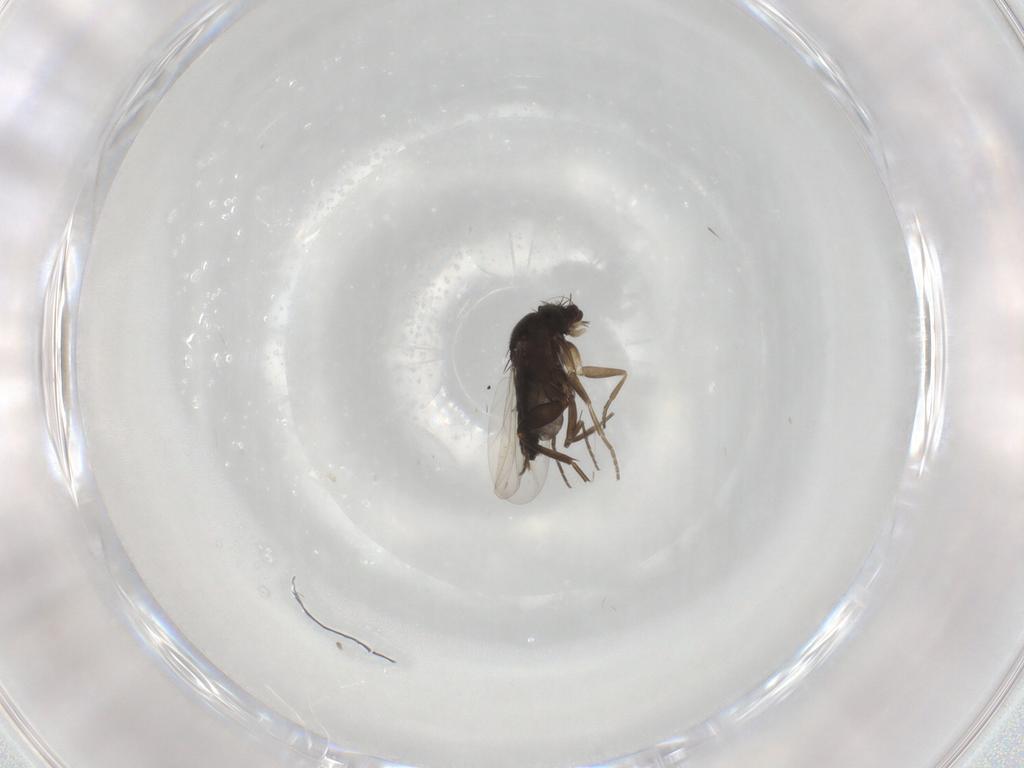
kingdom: Animalia
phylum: Arthropoda
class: Insecta
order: Diptera
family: Phoridae
